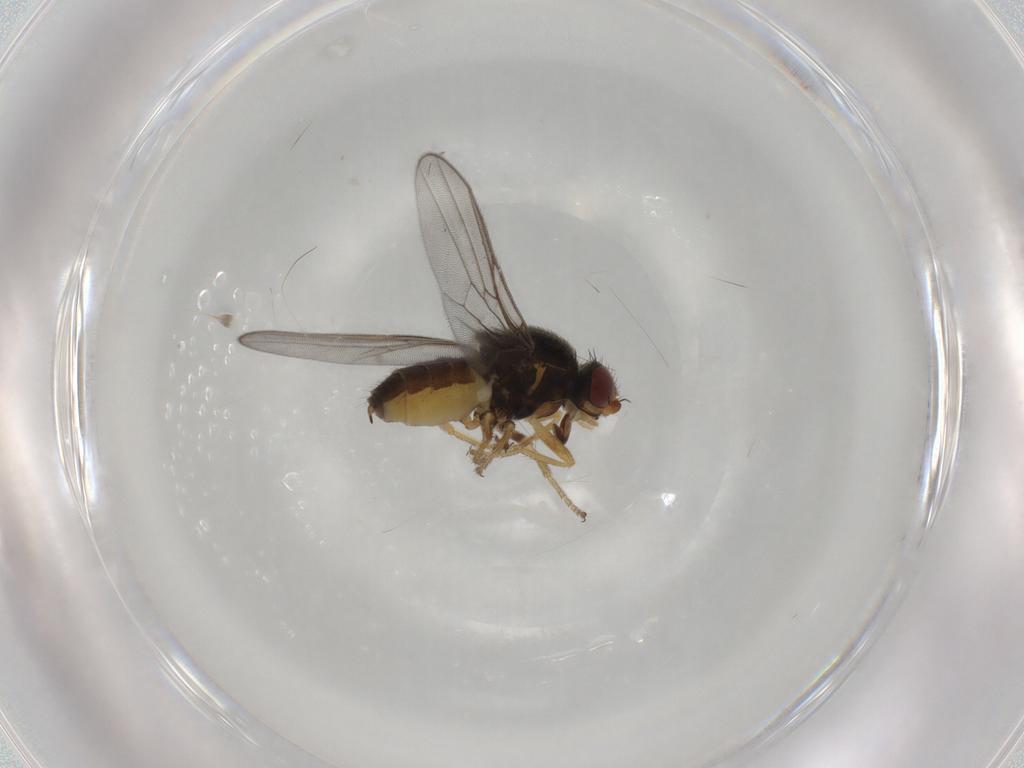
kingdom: Animalia
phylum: Arthropoda
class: Insecta
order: Diptera
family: Chloropidae
